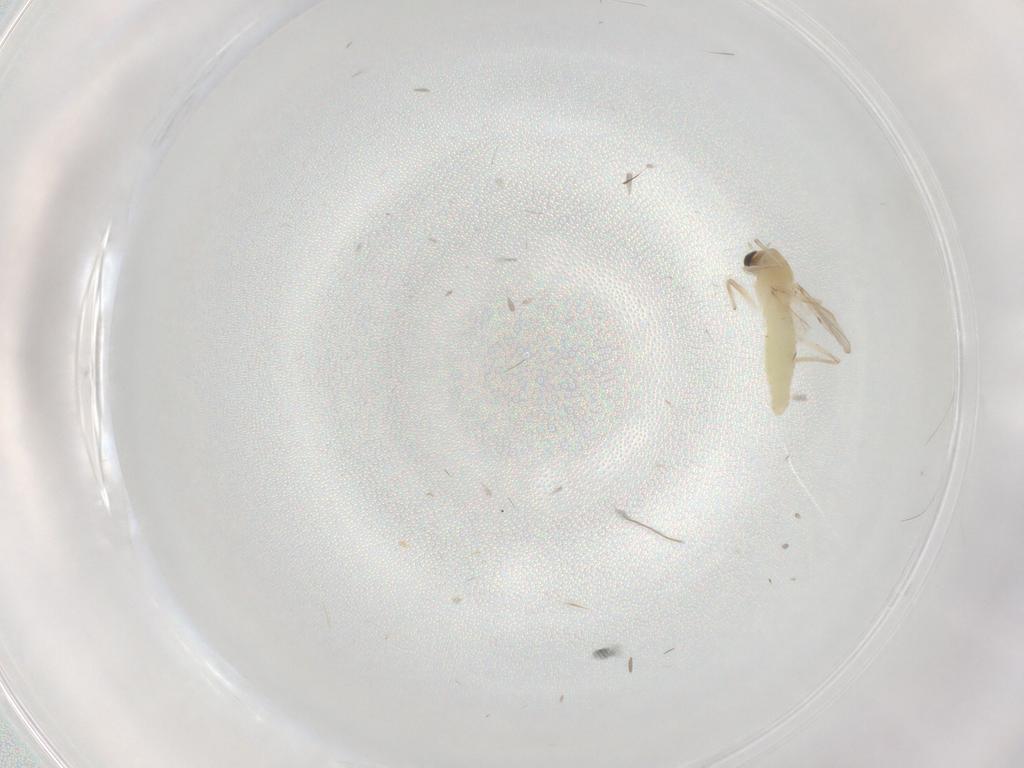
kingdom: Animalia
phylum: Arthropoda
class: Insecta
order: Diptera
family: Chironomidae
